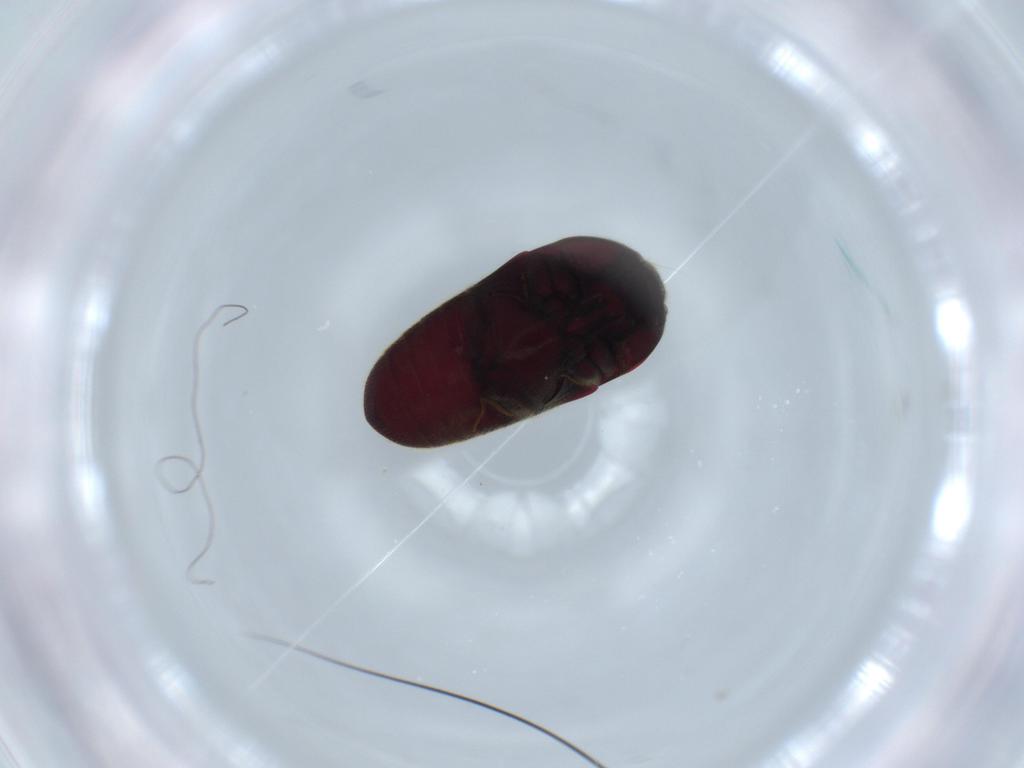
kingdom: Animalia
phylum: Arthropoda
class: Insecta
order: Coleoptera
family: Throscidae
